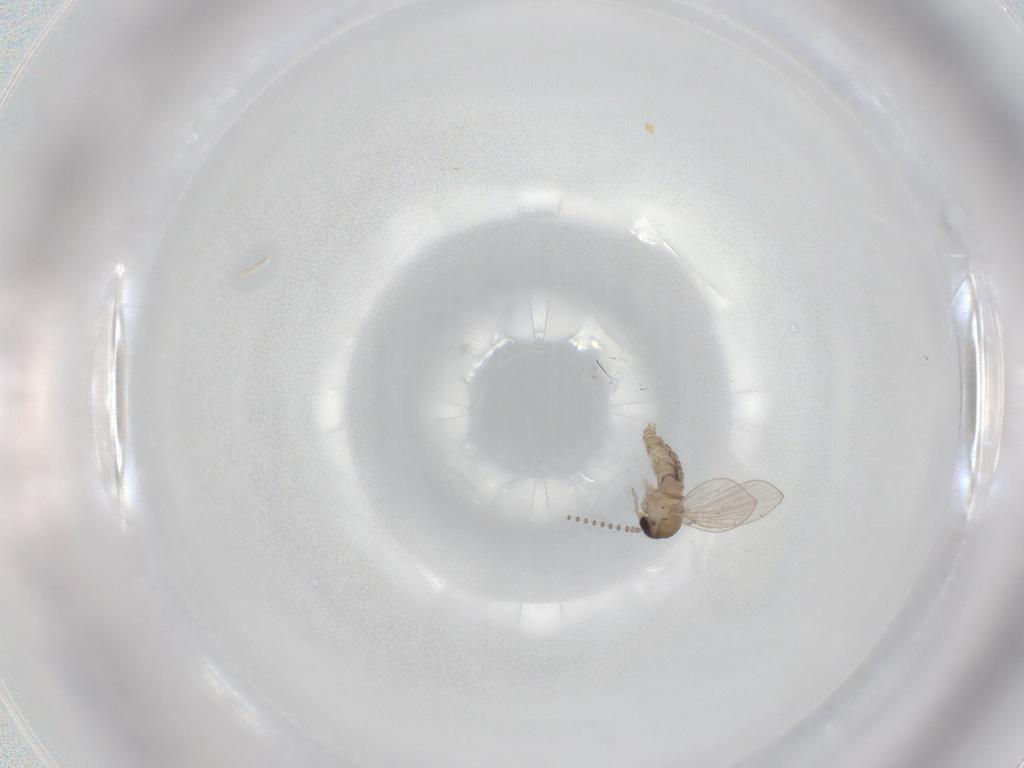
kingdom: Animalia
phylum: Arthropoda
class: Insecta
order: Diptera
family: Psychodidae
